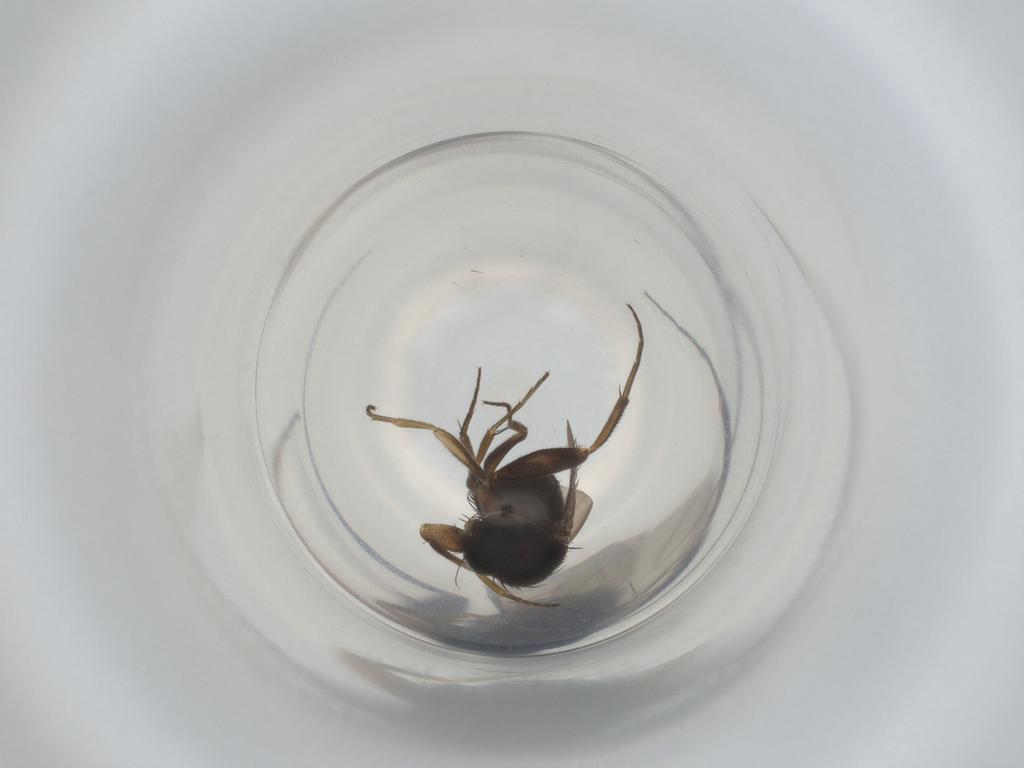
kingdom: Animalia
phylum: Arthropoda
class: Insecta
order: Diptera
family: Phoridae
